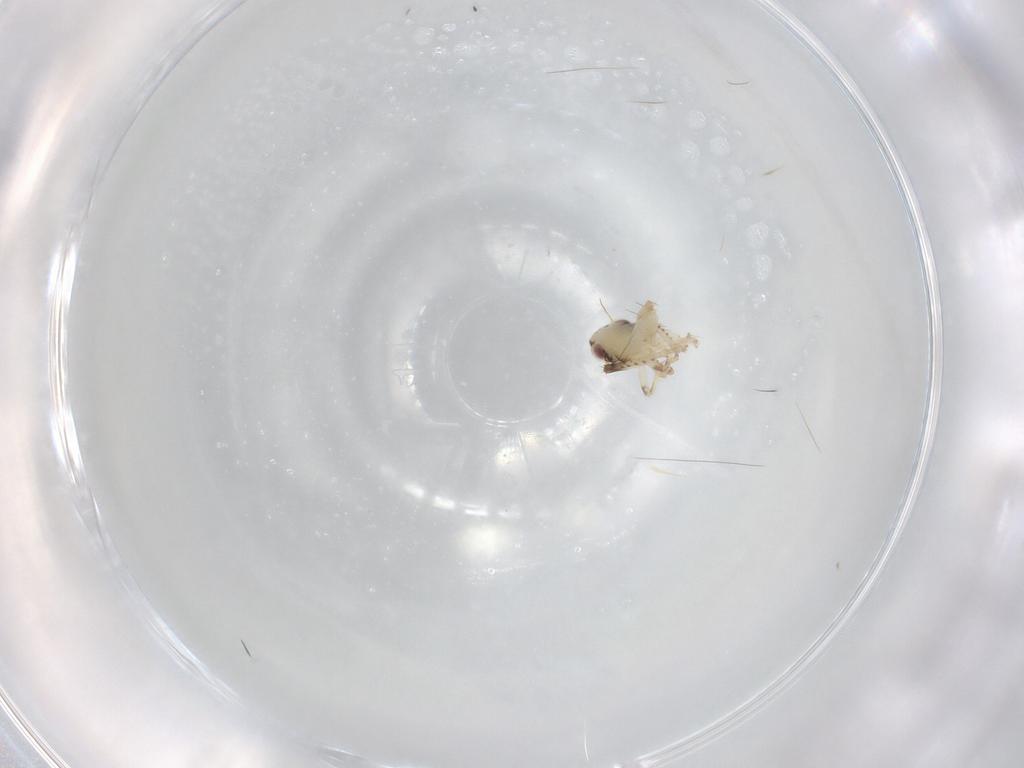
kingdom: Animalia
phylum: Arthropoda
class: Insecta
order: Hemiptera
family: Cicadellidae
